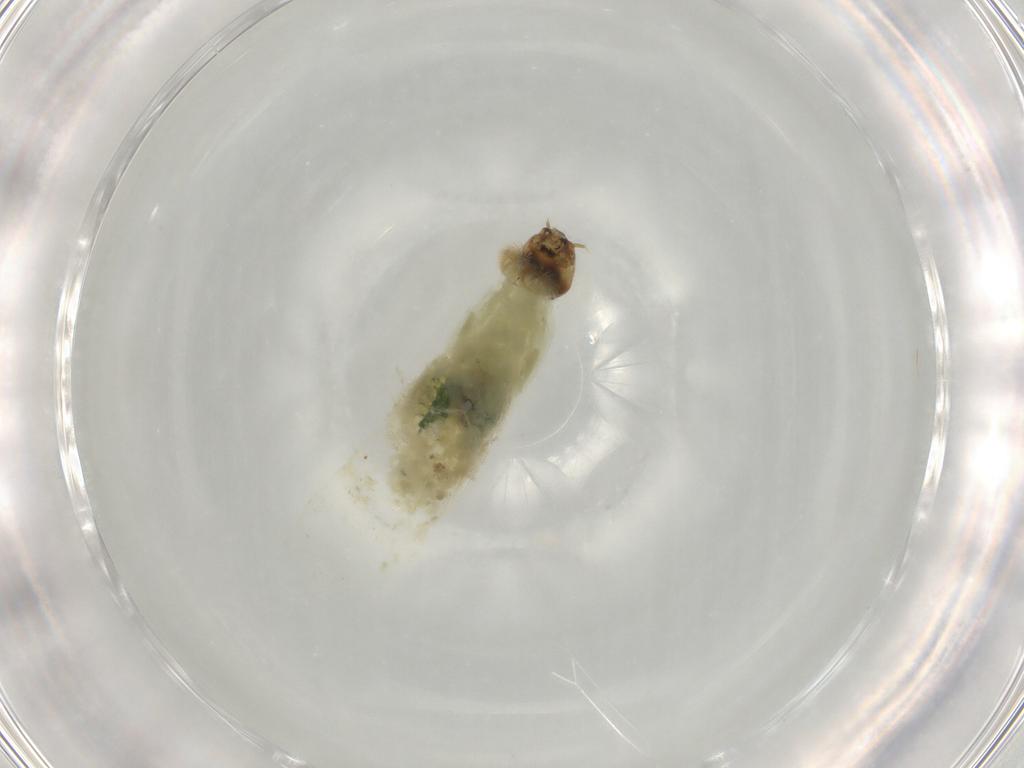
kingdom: Animalia
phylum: Arthropoda
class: Insecta
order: Diptera
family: Chironomidae
